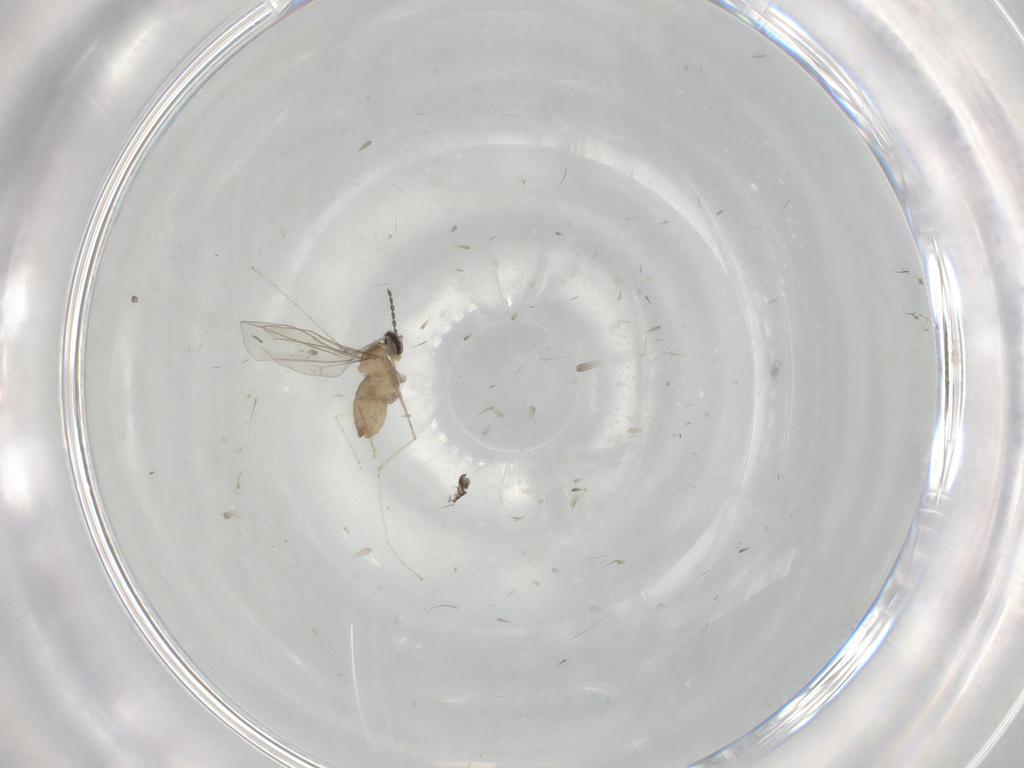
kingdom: Animalia
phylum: Arthropoda
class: Insecta
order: Diptera
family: Cecidomyiidae
